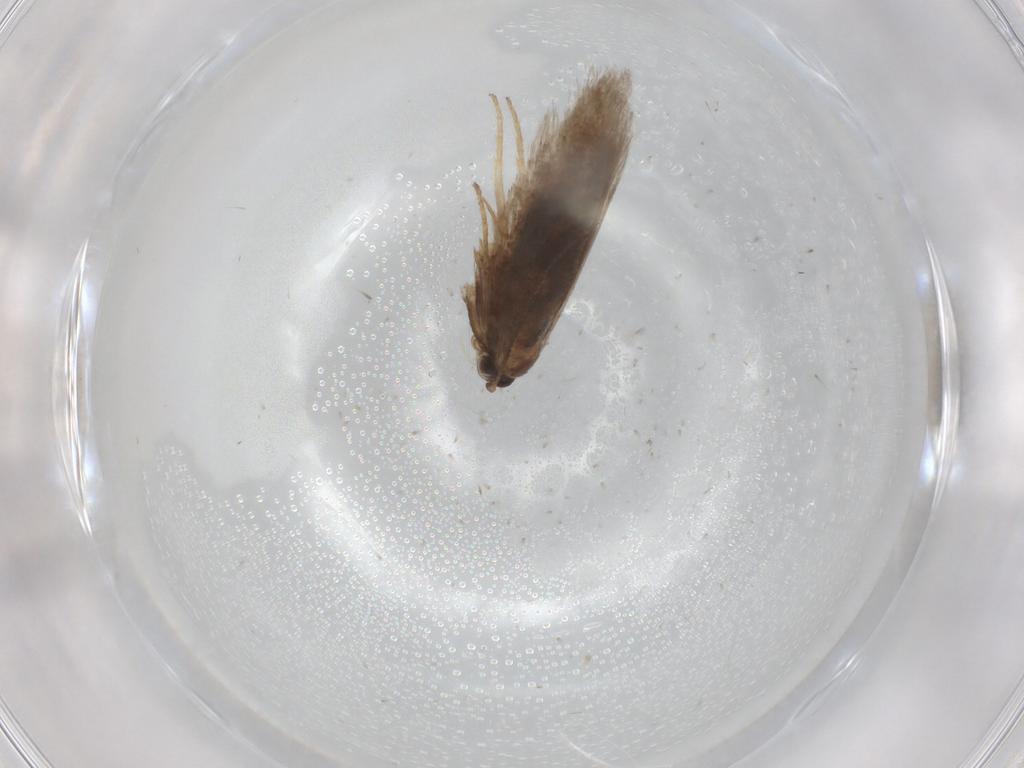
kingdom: Animalia
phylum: Arthropoda
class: Insecta
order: Lepidoptera
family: Nepticulidae
